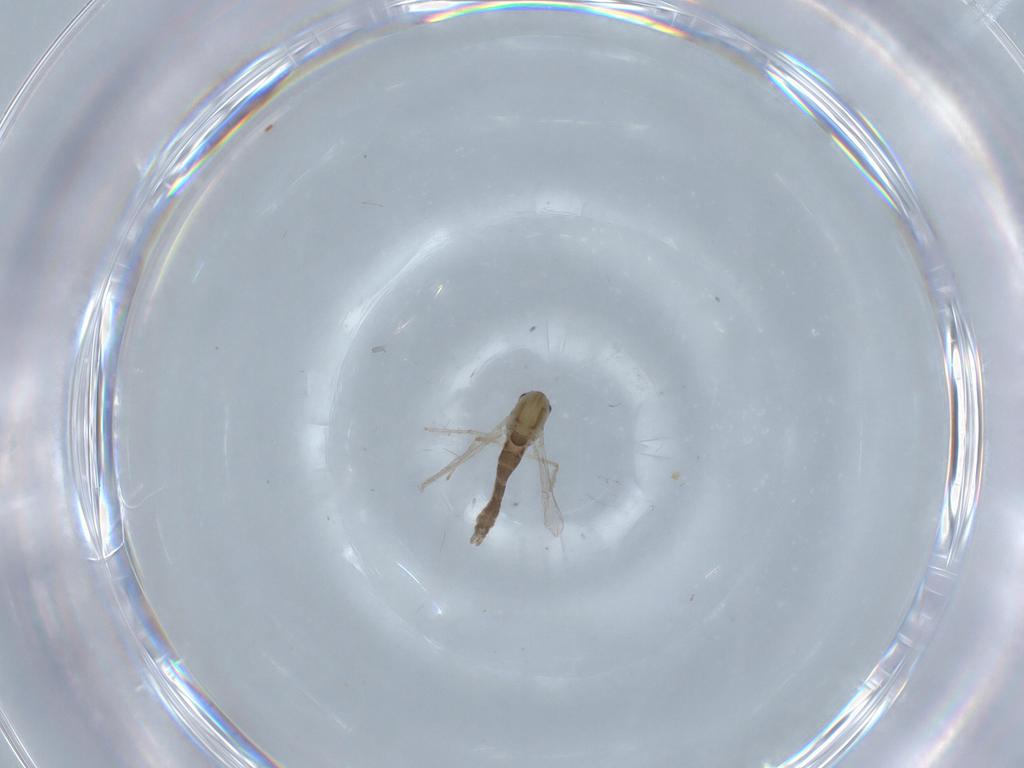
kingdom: Animalia
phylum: Arthropoda
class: Insecta
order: Diptera
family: Chironomidae
